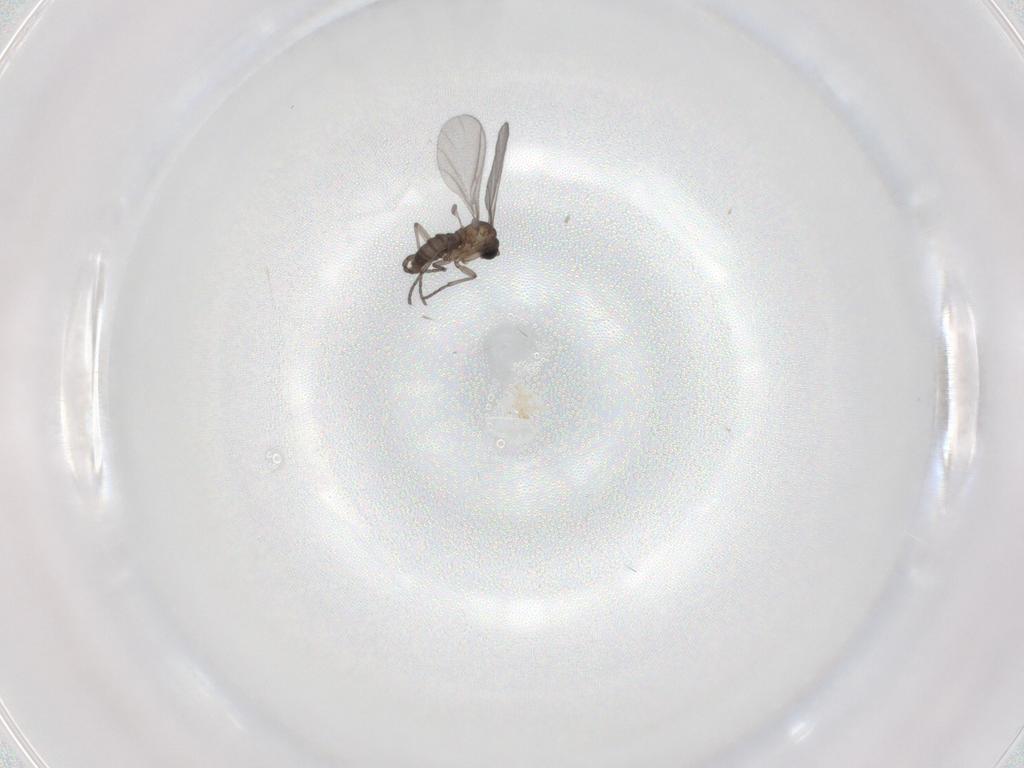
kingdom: Animalia
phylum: Arthropoda
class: Insecta
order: Diptera
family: Sciaridae
